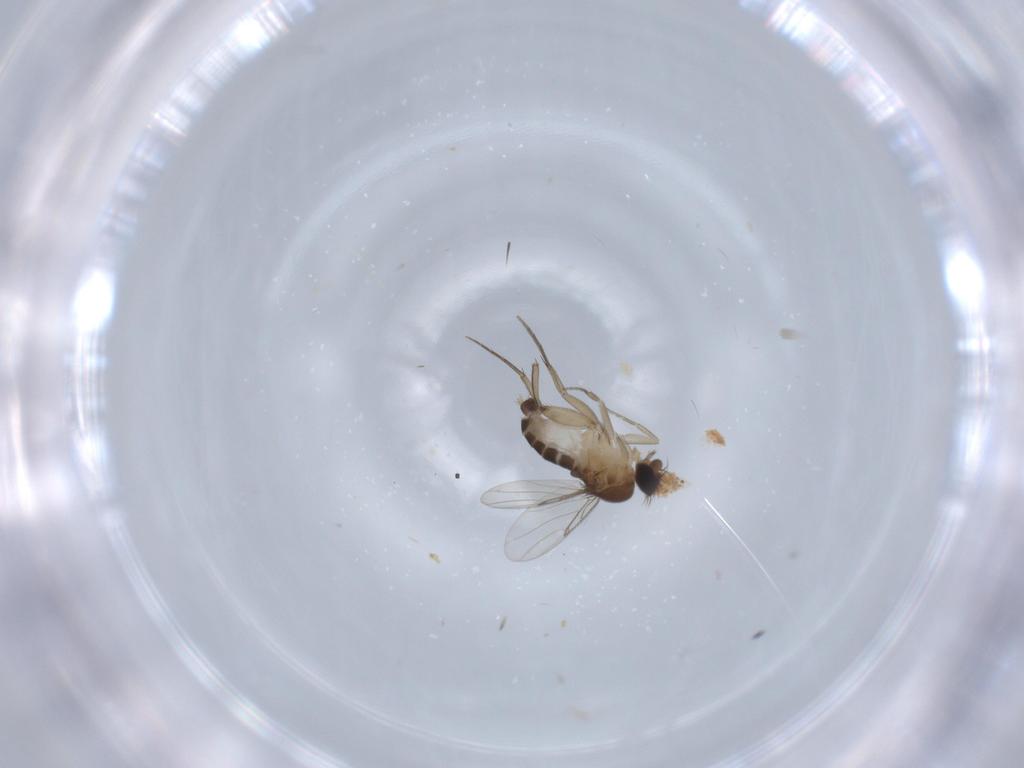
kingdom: Animalia
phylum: Arthropoda
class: Insecta
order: Diptera
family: Phoridae
